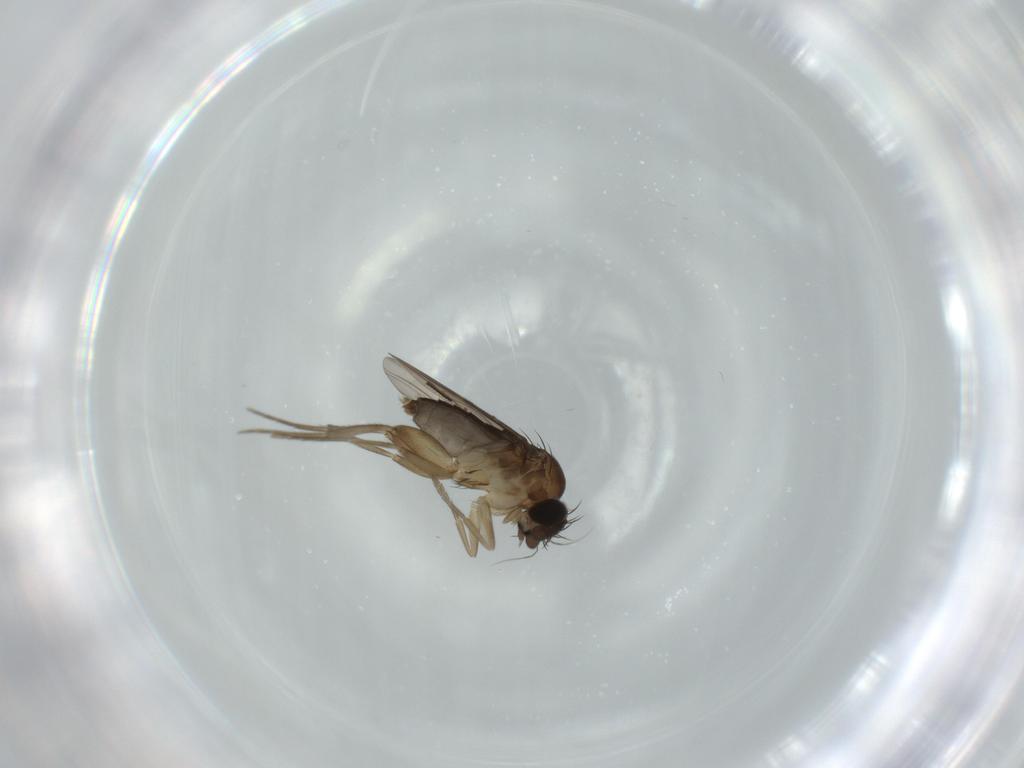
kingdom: Animalia
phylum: Arthropoda
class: Insecta
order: Diptera
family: Phoridae
